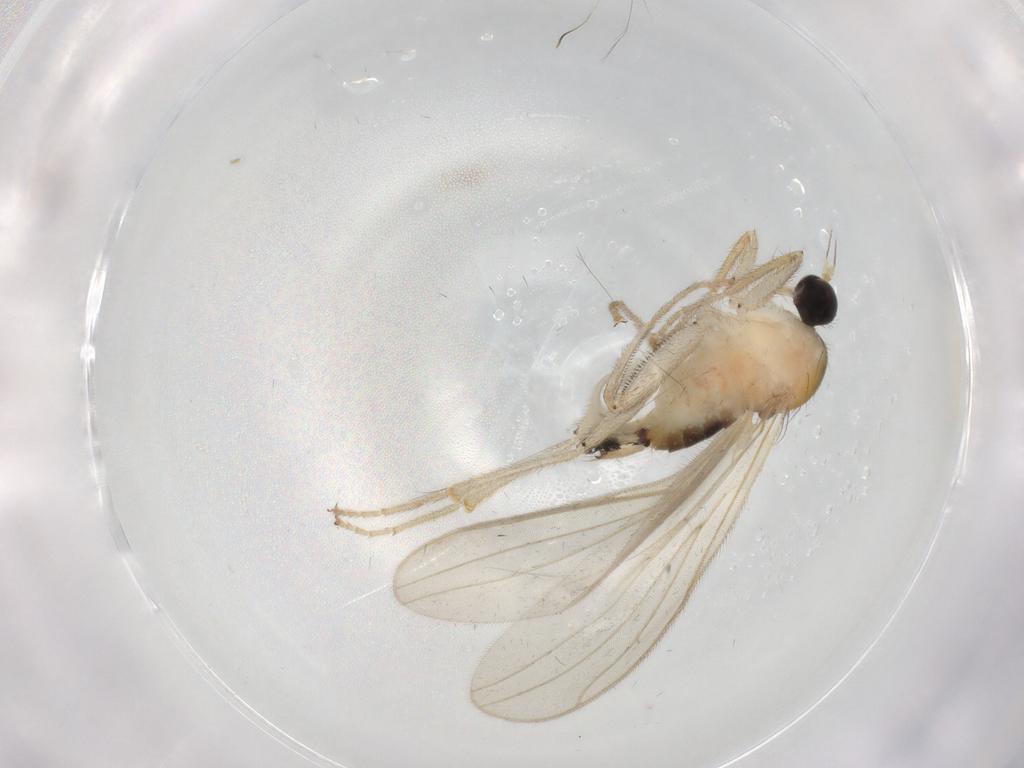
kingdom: Animalia
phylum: Arthropoda
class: Insecta
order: Diptera
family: Hybotidae
